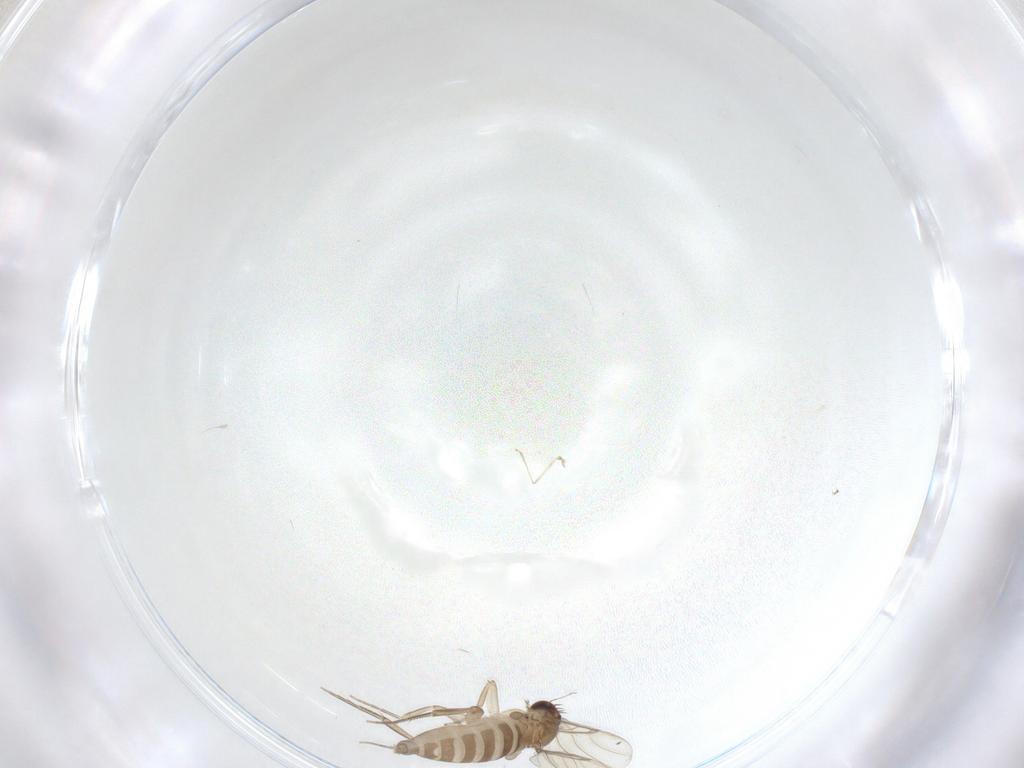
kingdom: Animalia
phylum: Arthropoda
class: Insecta
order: Diptera
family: Phoridae
